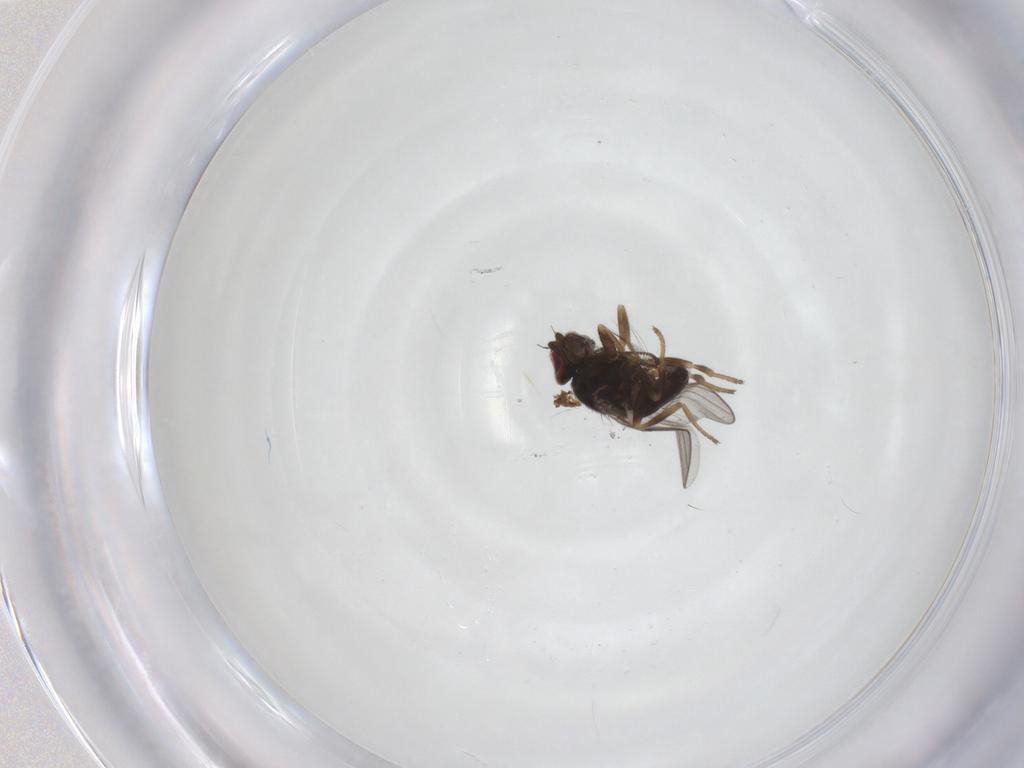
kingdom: Animalia
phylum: Arthropoda
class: Insecta
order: Diptera
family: Chloropidae
